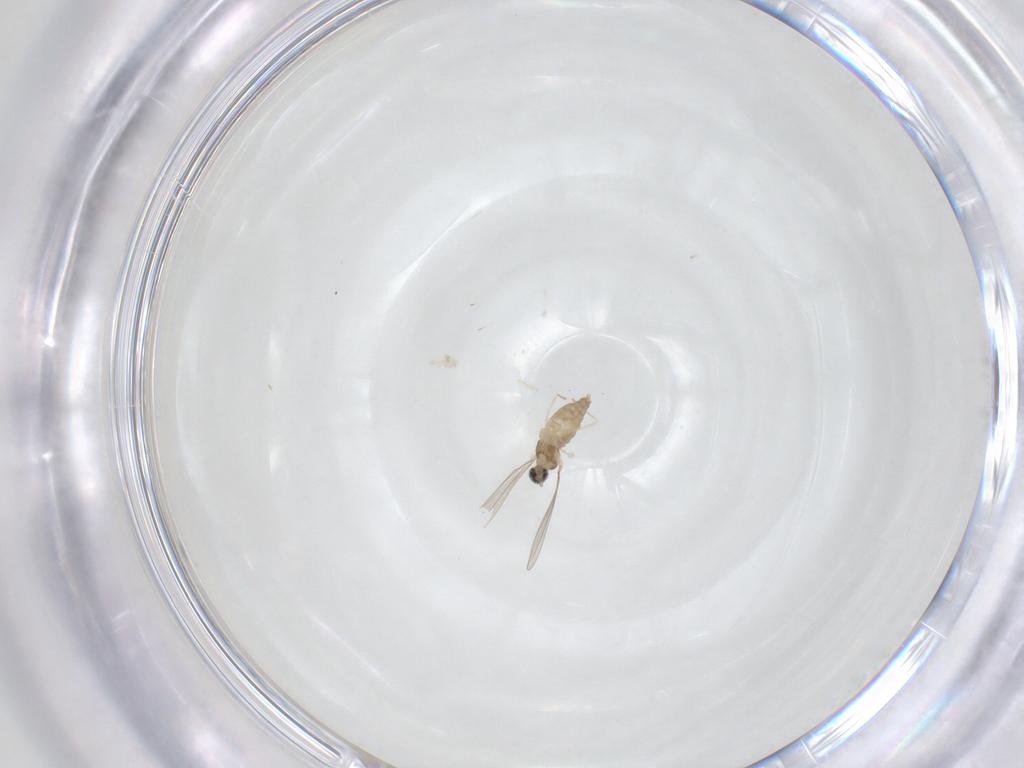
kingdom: Animalia
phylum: Arthropoda
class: Insecta
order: Diptera
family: Cecidomyiidae
